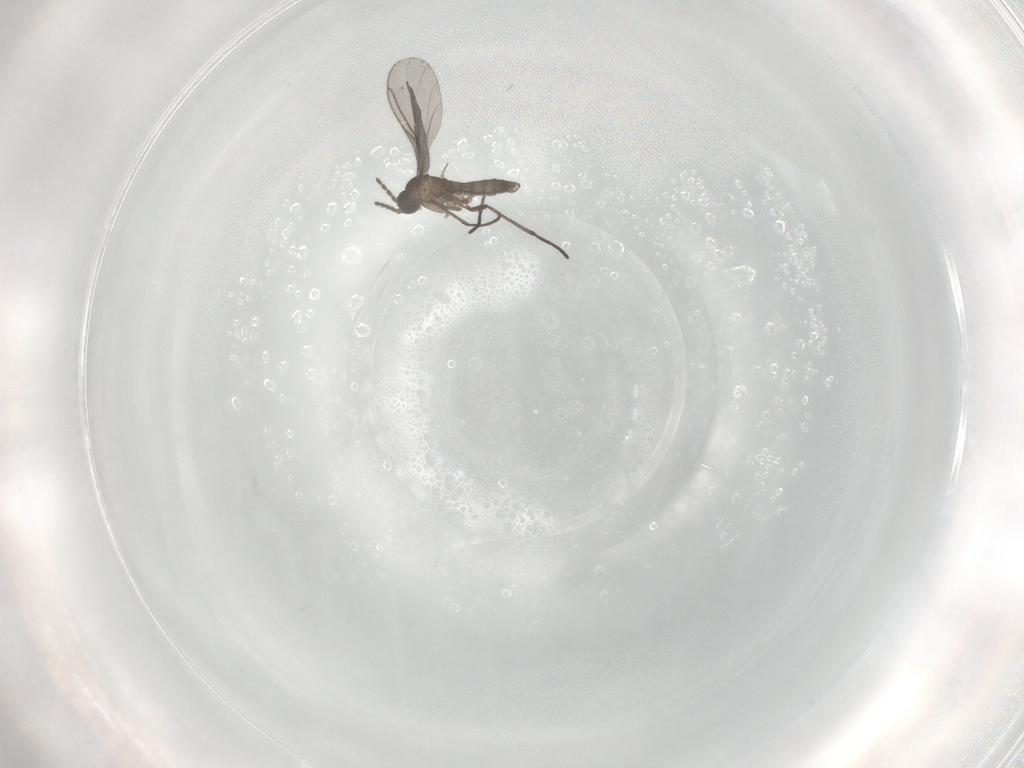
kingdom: Animalia
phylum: Arthropoda
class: Insecta
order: Diptera
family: Sciaridae
